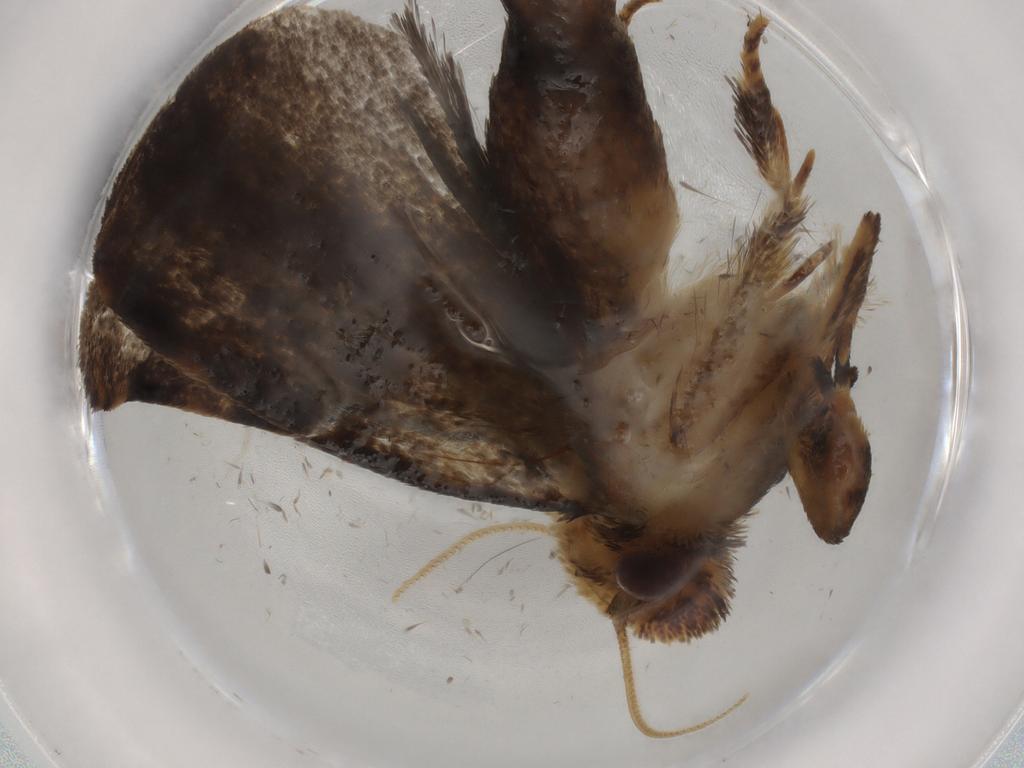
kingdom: Animalia
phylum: Arthropoda
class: Insecta
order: Lepidoptera
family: Tineidae
